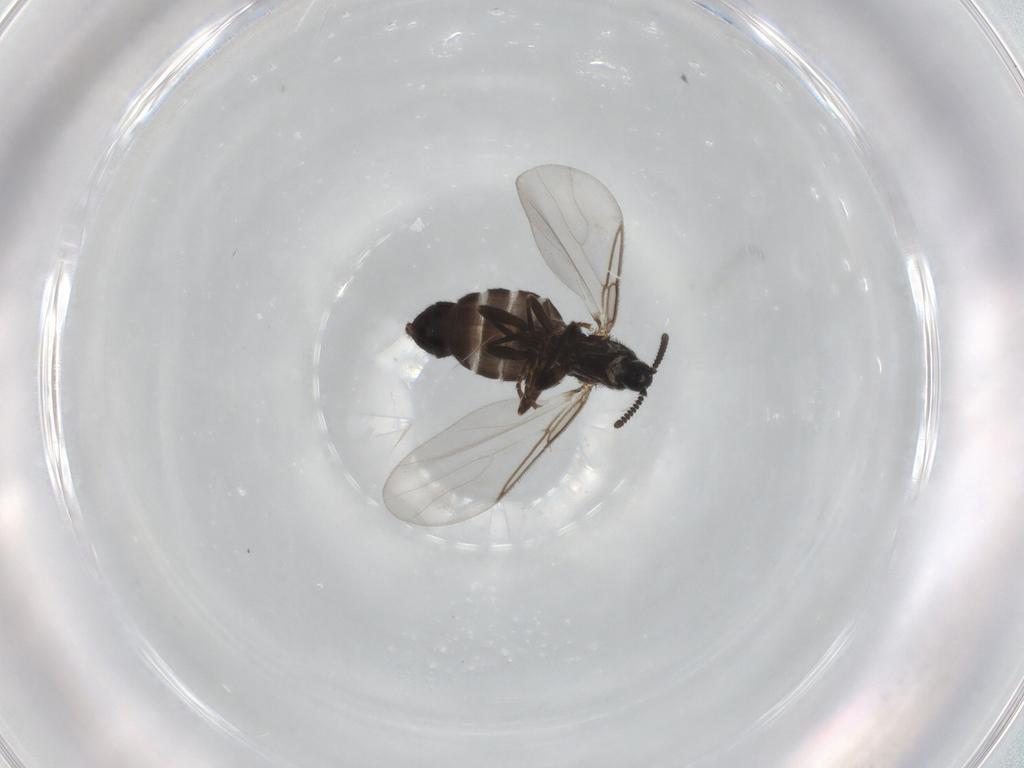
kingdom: Animalia
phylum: Arthropoda
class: Insecta
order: Diptera
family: Scatopsidae
